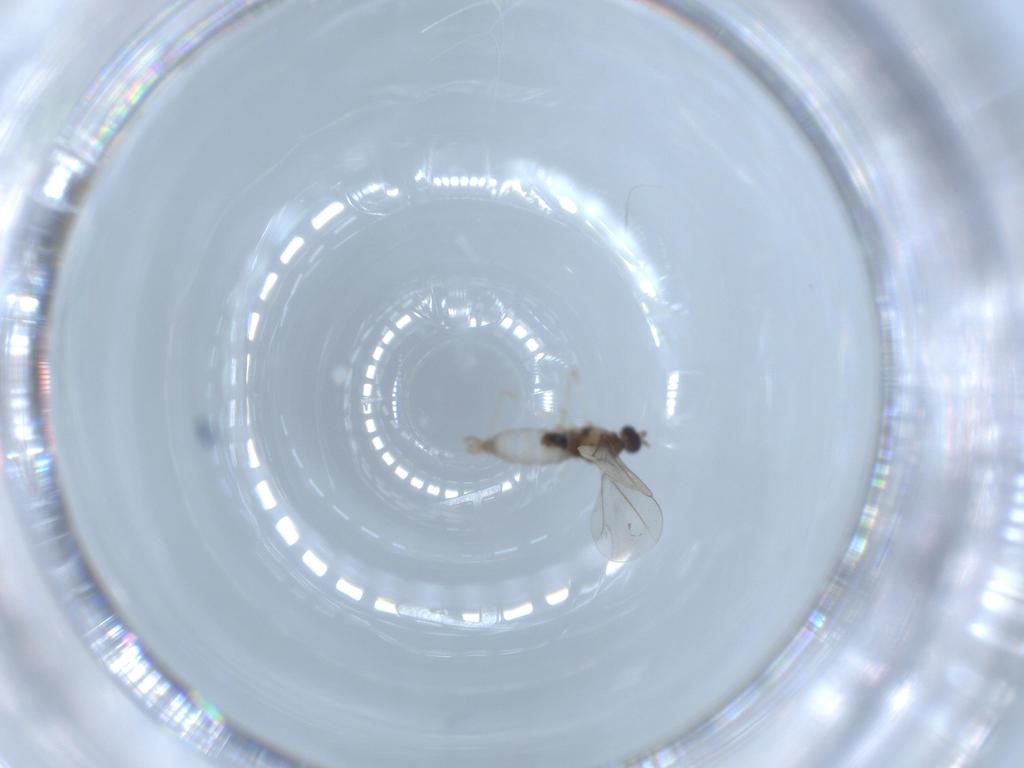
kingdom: Animalia
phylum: Arthropoda
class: Insecta
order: Diptera
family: Cecidomyiidae
